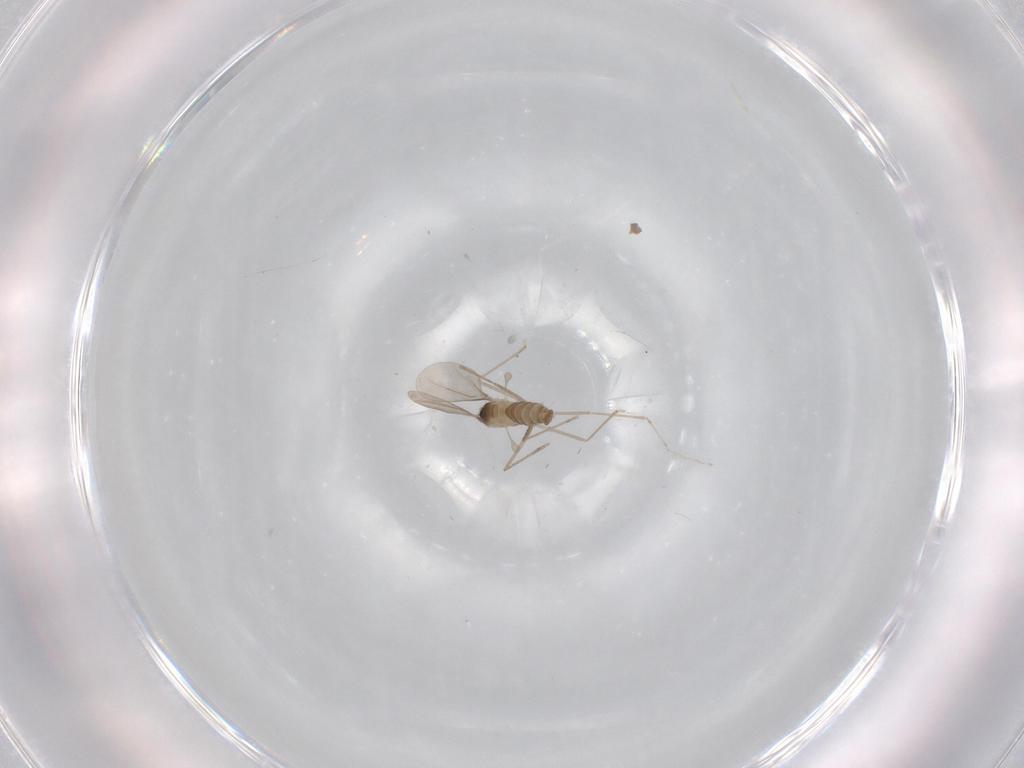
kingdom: Animalia
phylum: Arthropoda
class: Insecta
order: Diptera
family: Cecidomyiidae
